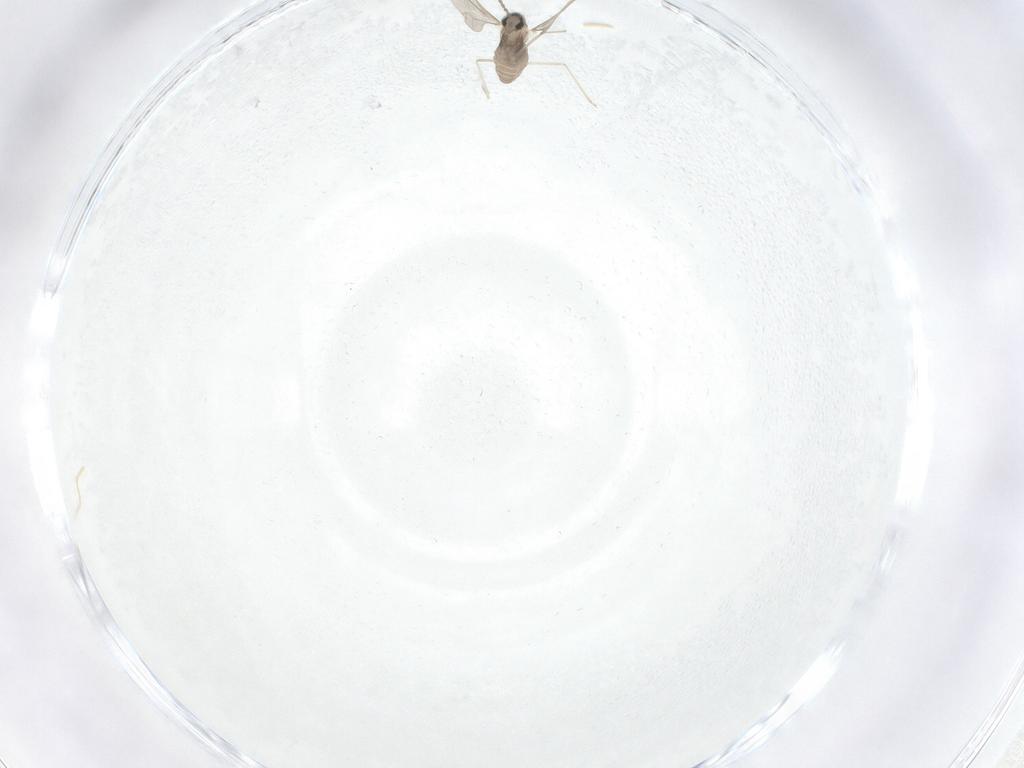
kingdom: Animalia
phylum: Arthropoda
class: Insecta
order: Diptera
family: Cecidomyiidae
